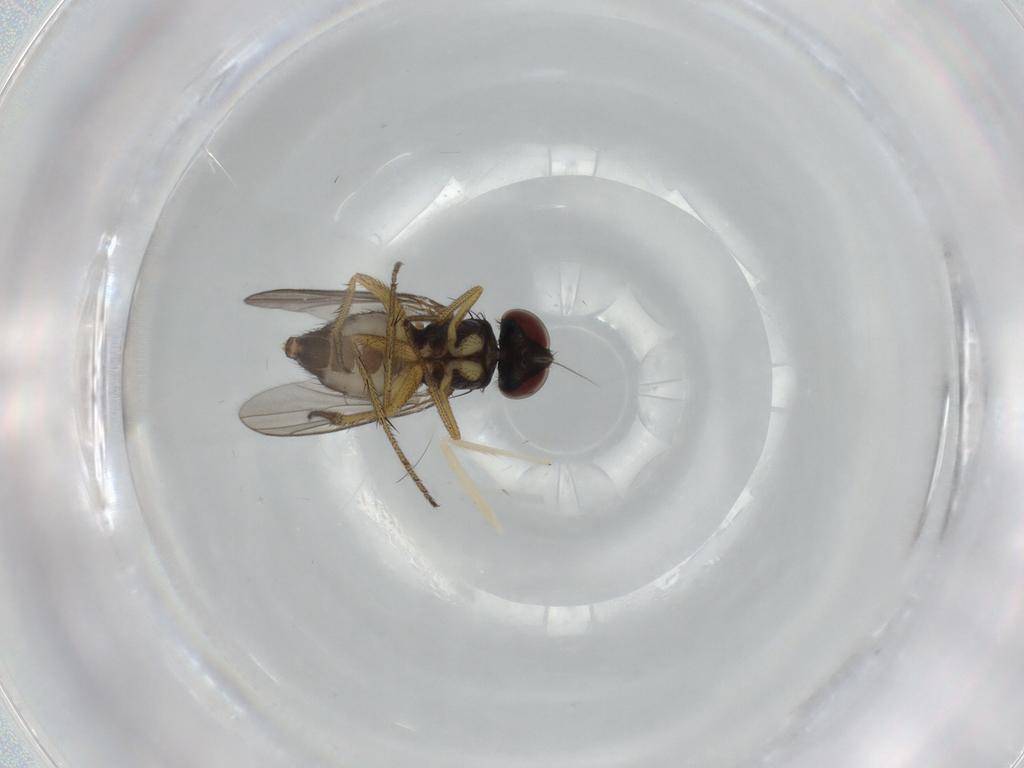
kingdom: Animalia
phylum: Arthropoda
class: Insecta
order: Diptera
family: Micropezidae
